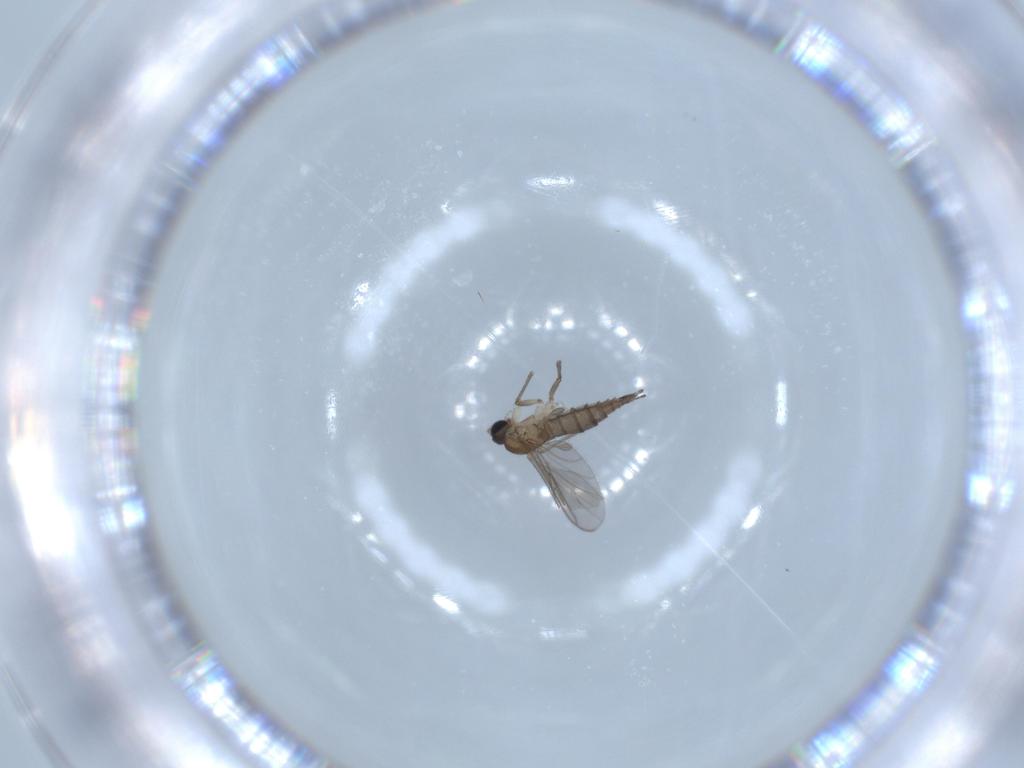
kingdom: Animalia
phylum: Arthropoda
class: Insecta
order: Diptera
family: Sciaridae
